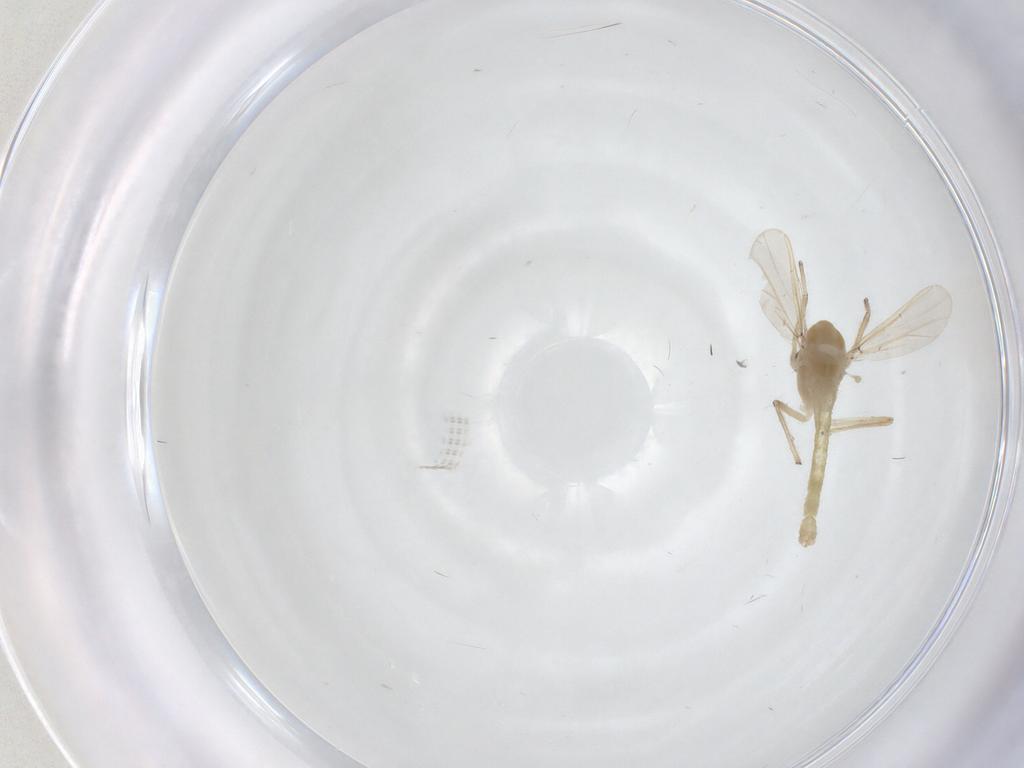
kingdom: Animalia
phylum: Arthropoda
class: Insecta
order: Diptera
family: Chironomidae
